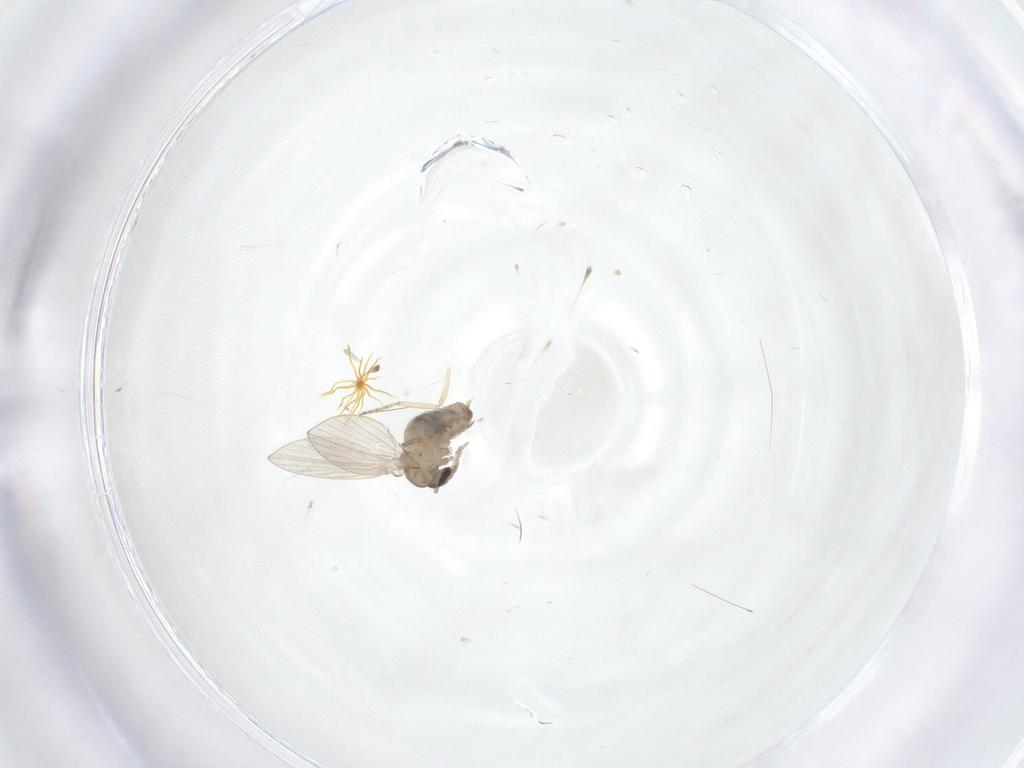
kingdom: Animalia
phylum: Arthropoda
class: Insecta
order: Diptera
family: Ceratopogonidae
